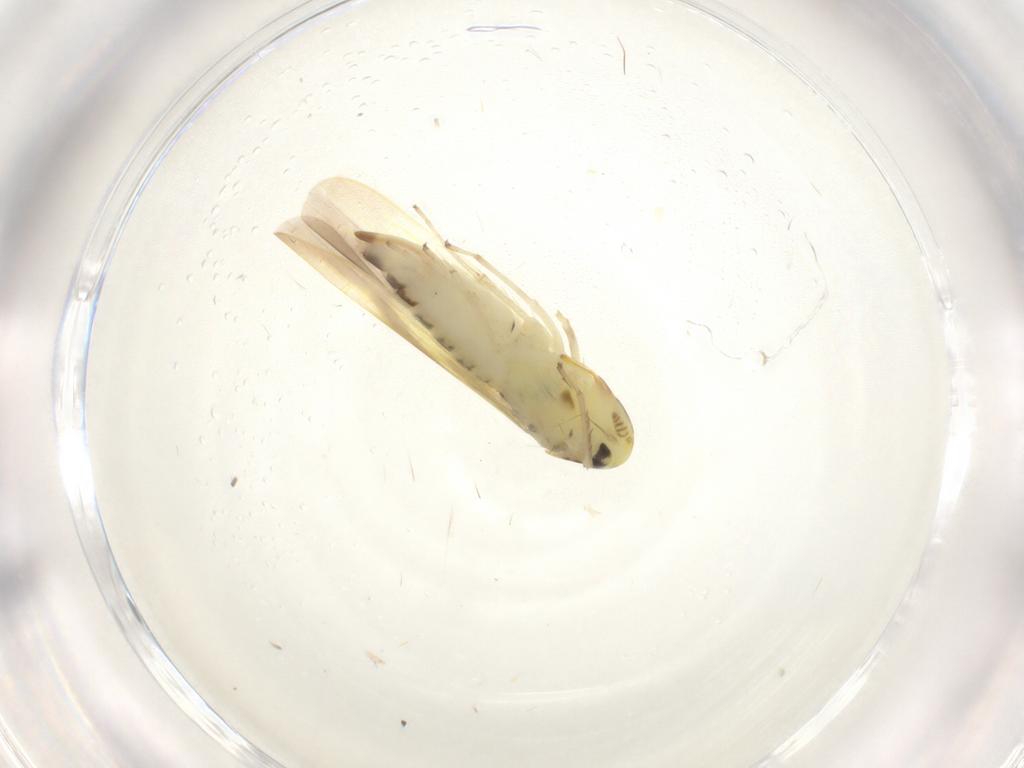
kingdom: Animalia
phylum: Arthropoda
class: Insecta
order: Hemiptera
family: Cicadellidae
